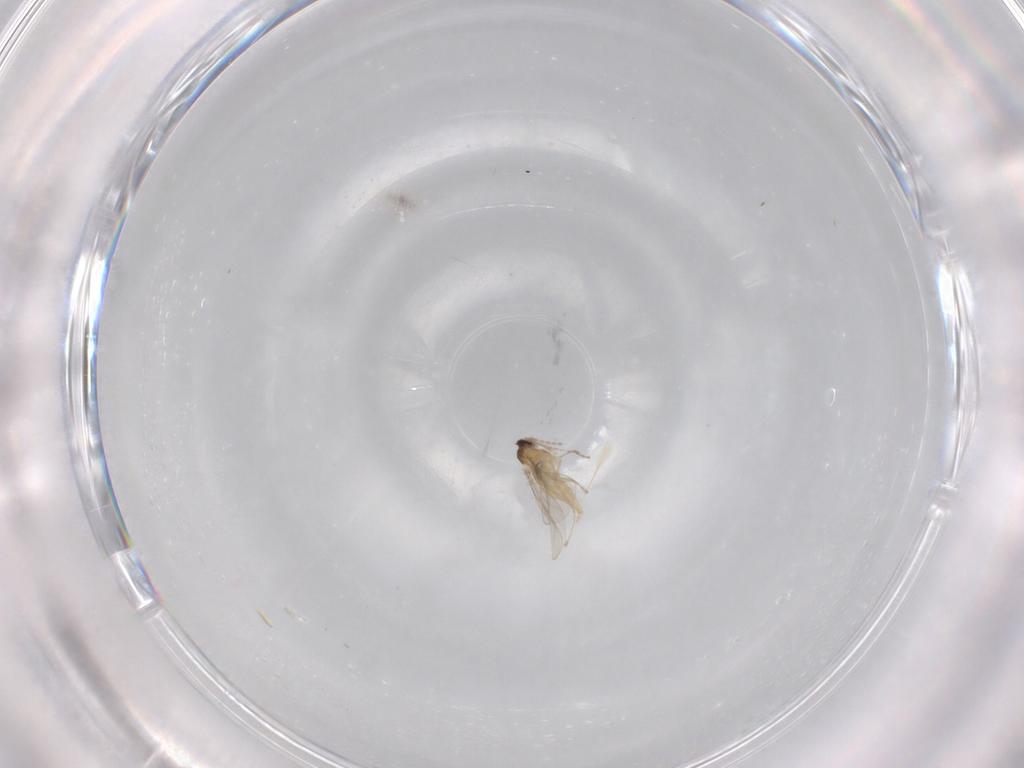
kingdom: Animalia
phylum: Arthropoda
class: Insecta
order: Diptera
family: Cecidomyiidae
